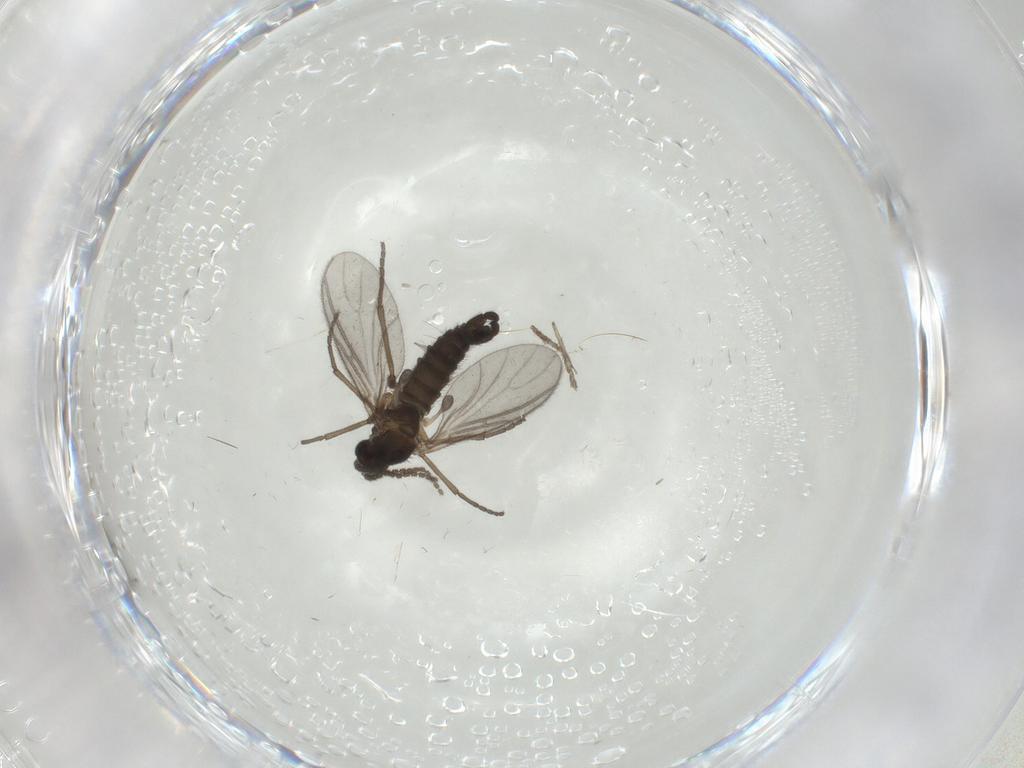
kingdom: Animalia
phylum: Arthropoda
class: Insecta
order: Diptera
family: Sciaridae
